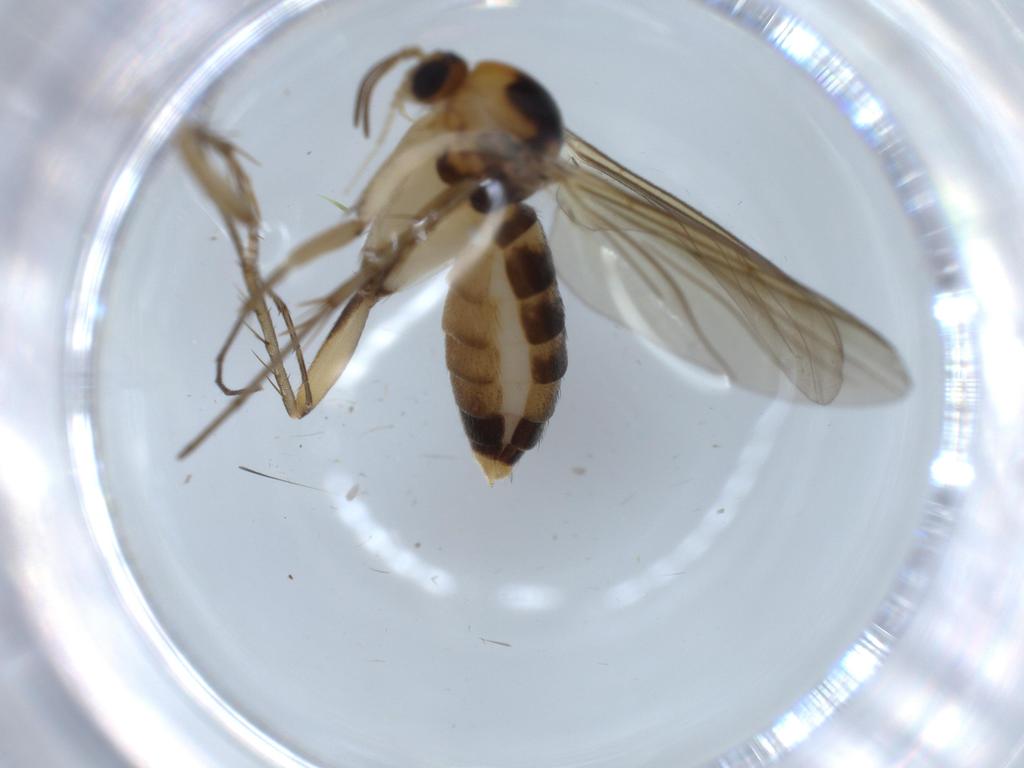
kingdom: Animalia
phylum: Arthropoda
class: Insecta
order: Diptera
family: Mycetophilidae
